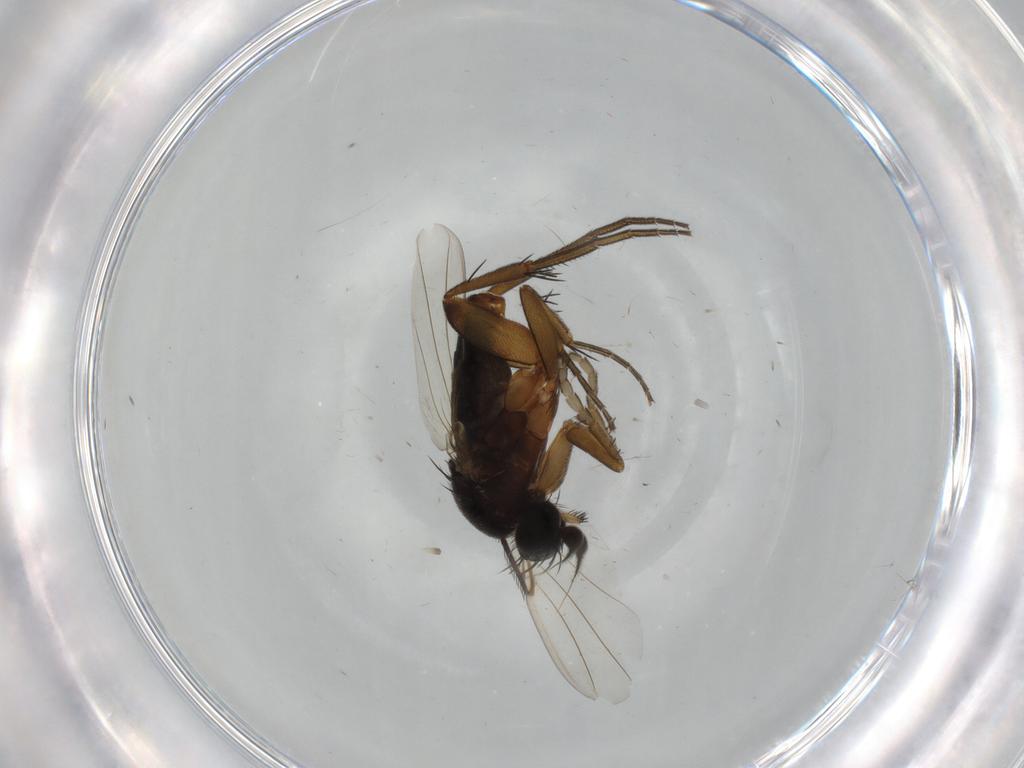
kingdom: Animalia
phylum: Arthropoda
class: Insecta
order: Diptera
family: Phoridae
